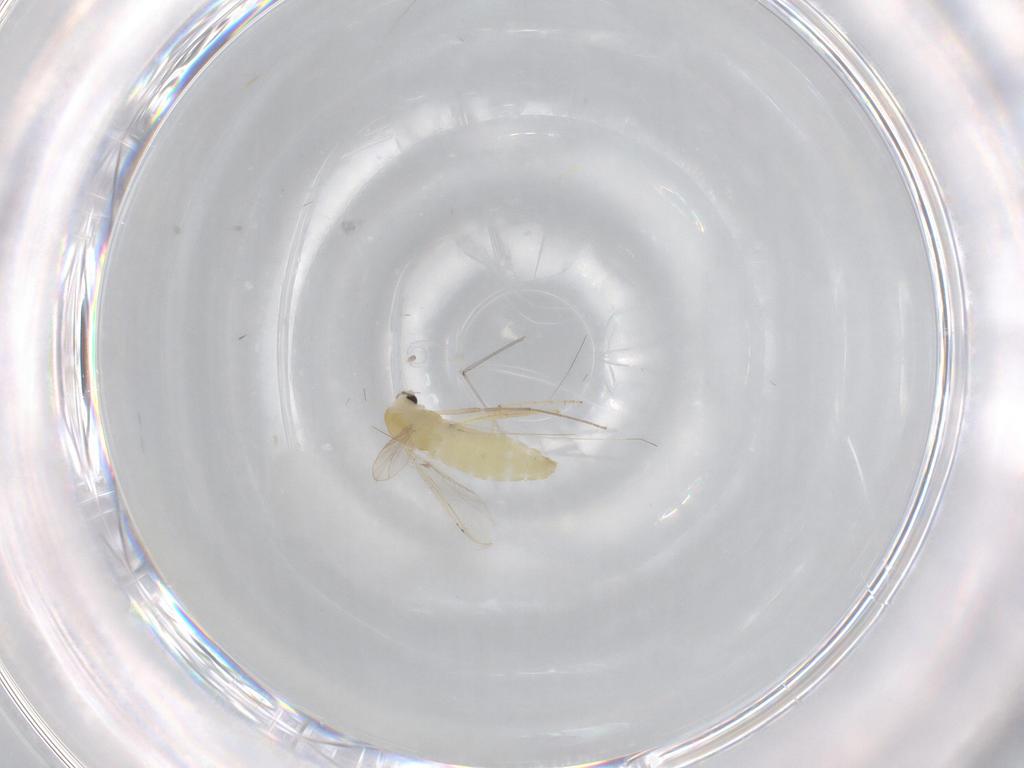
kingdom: Animalia
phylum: Arthropoda
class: Insecta
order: Diptera
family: Chironomidae
